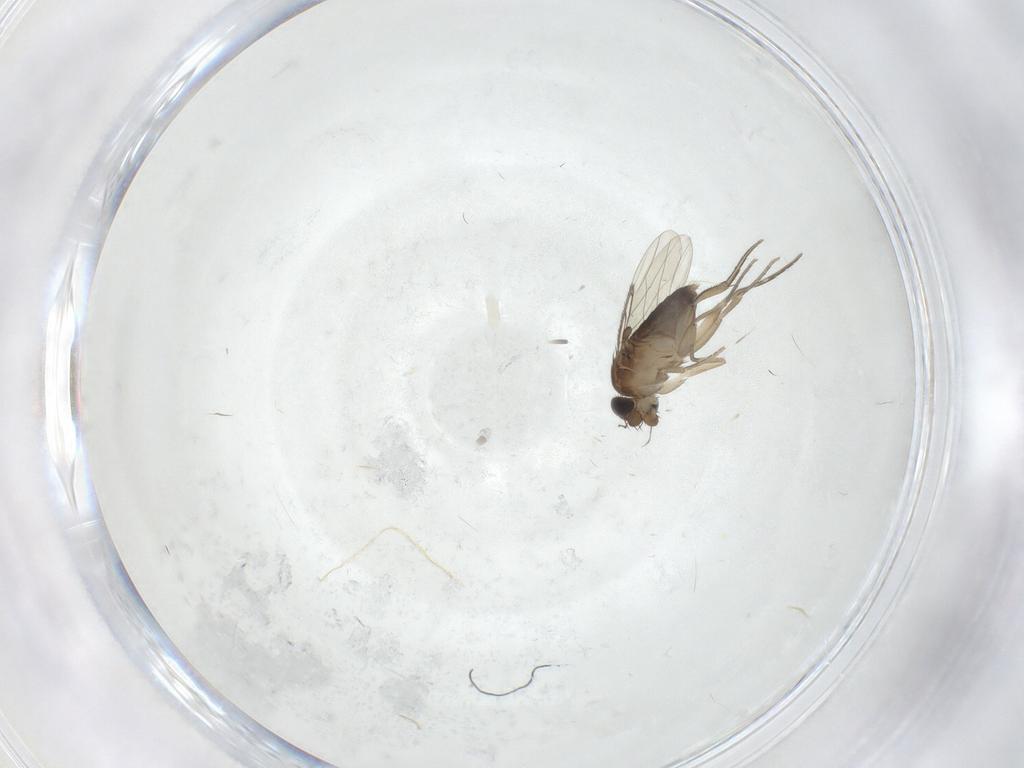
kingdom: Animalia
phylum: Arthropoda
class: Insecta
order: Diptera
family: Phoridae
